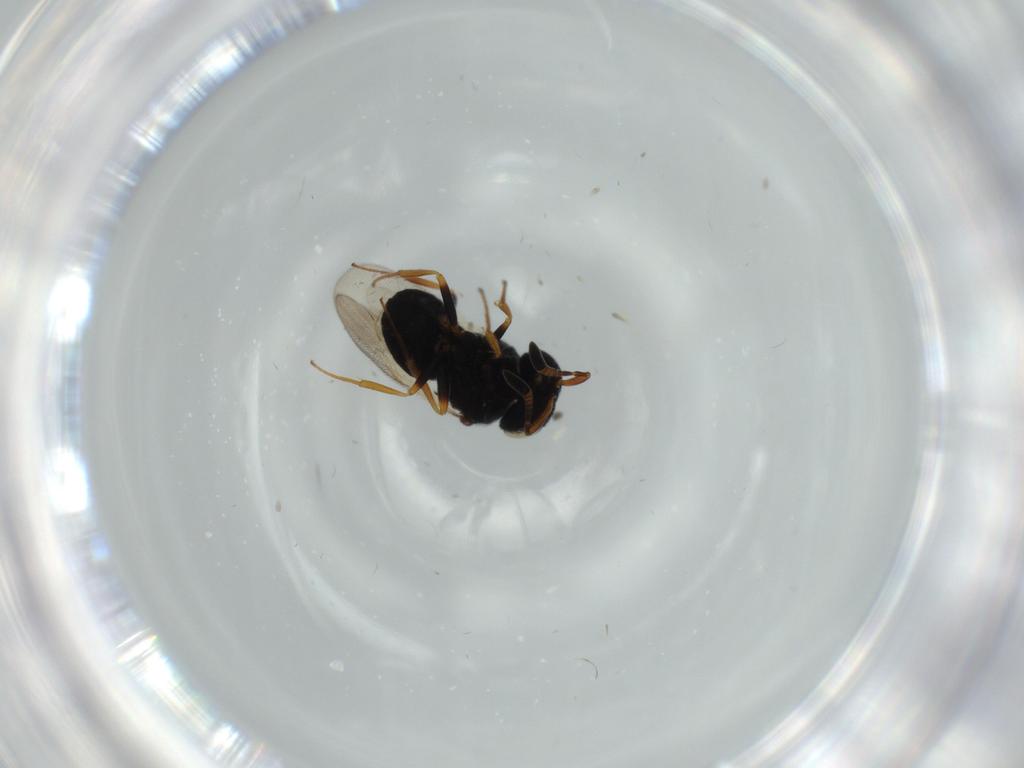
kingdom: Animalia
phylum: Arthropoda
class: Insecta
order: Hymenoptera
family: Scelionidae
